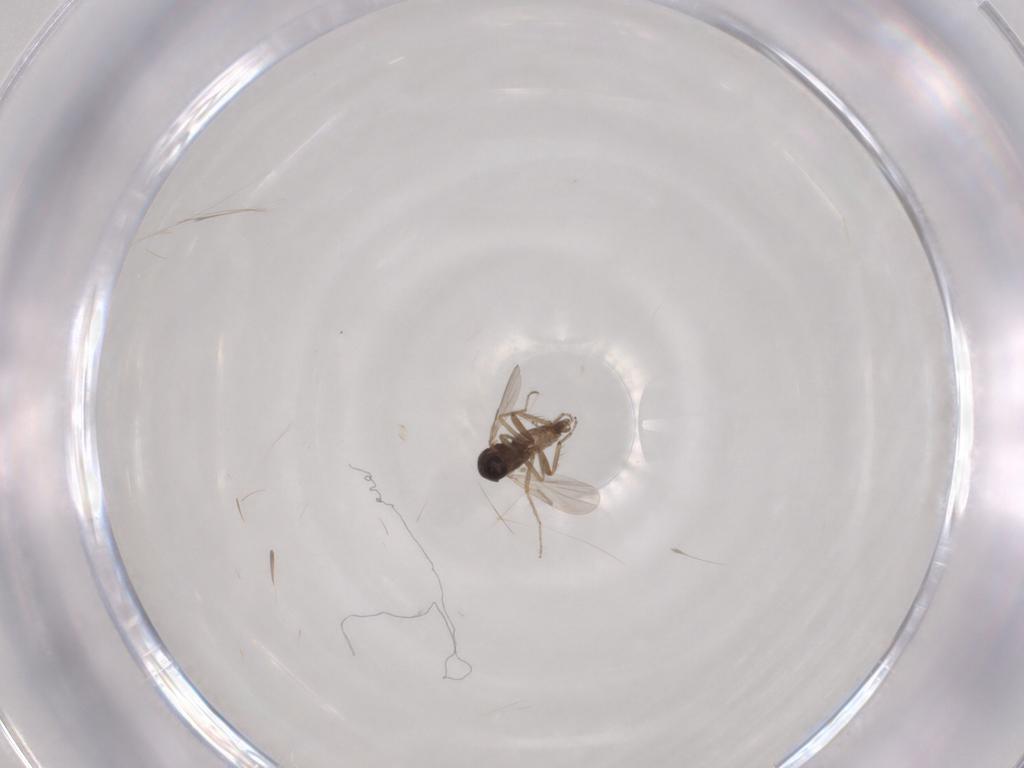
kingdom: Animalia
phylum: Arthropoda
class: Insecta
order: Diptera
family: Ceratopogonidae
